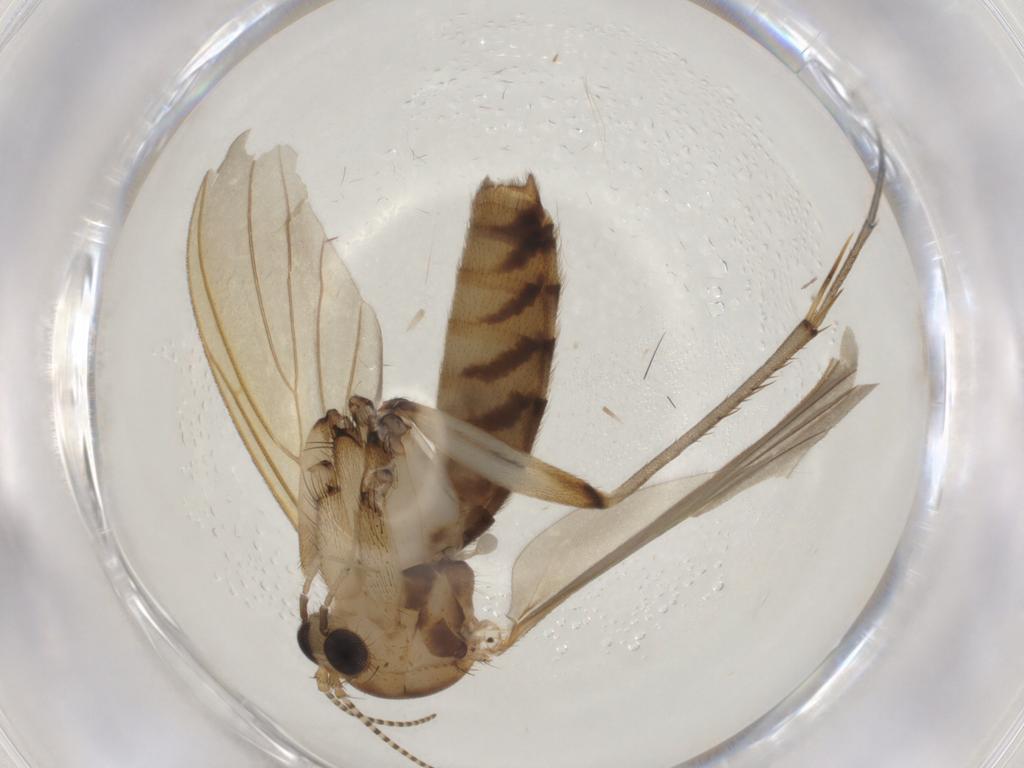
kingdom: Animalia
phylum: Arthropoda
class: Insecta
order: Diptera
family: Mycetophilidae
